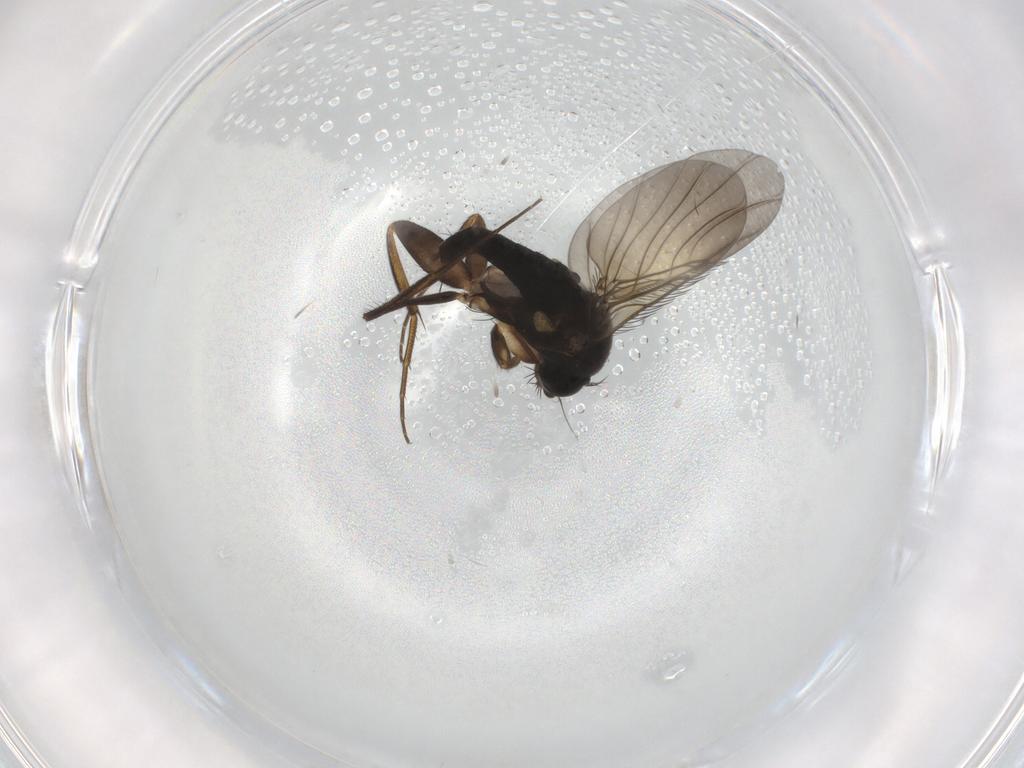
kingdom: Animalia
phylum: Arthropoda
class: Insecta
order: Diptera
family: Phoridae
